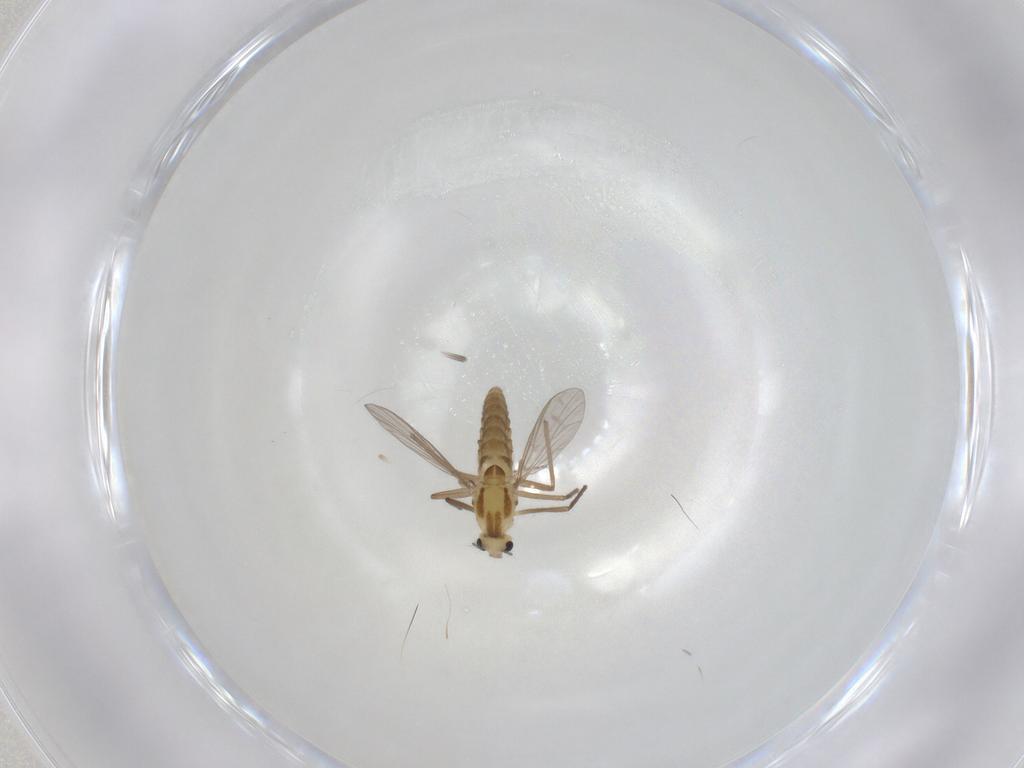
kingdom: Animalia
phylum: Arthropoda
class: Insecta
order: Diptera
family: Chironomidae
